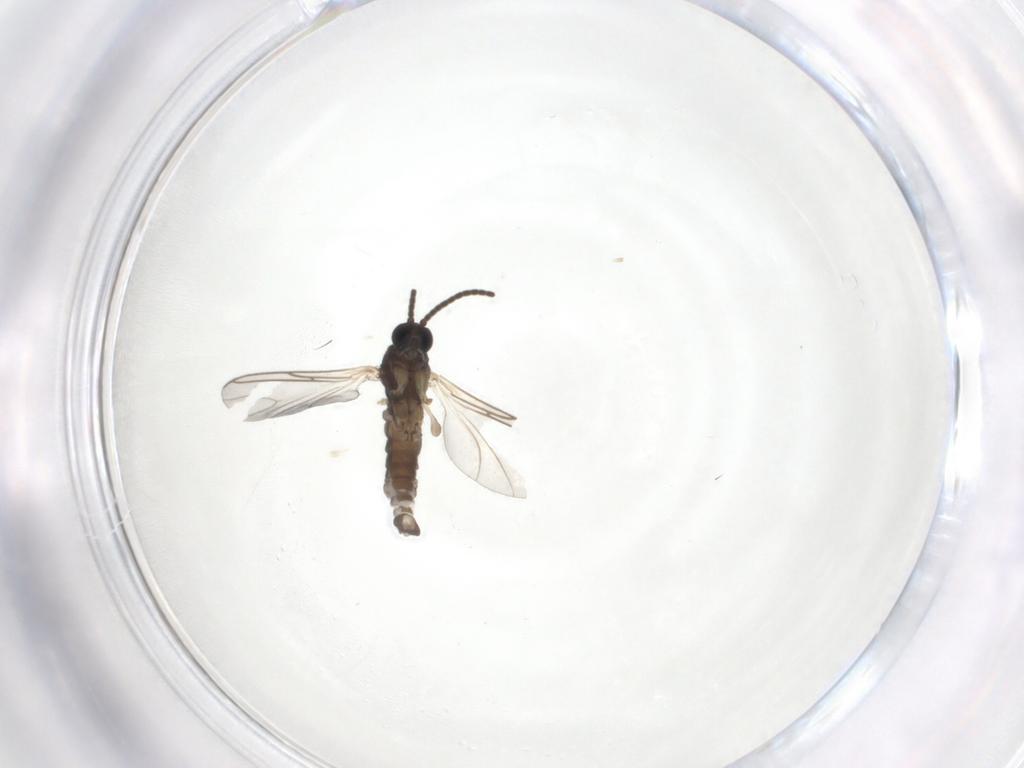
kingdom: Animalia
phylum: Arthropoda
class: Insecta
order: Diptera
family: Sciaridae
